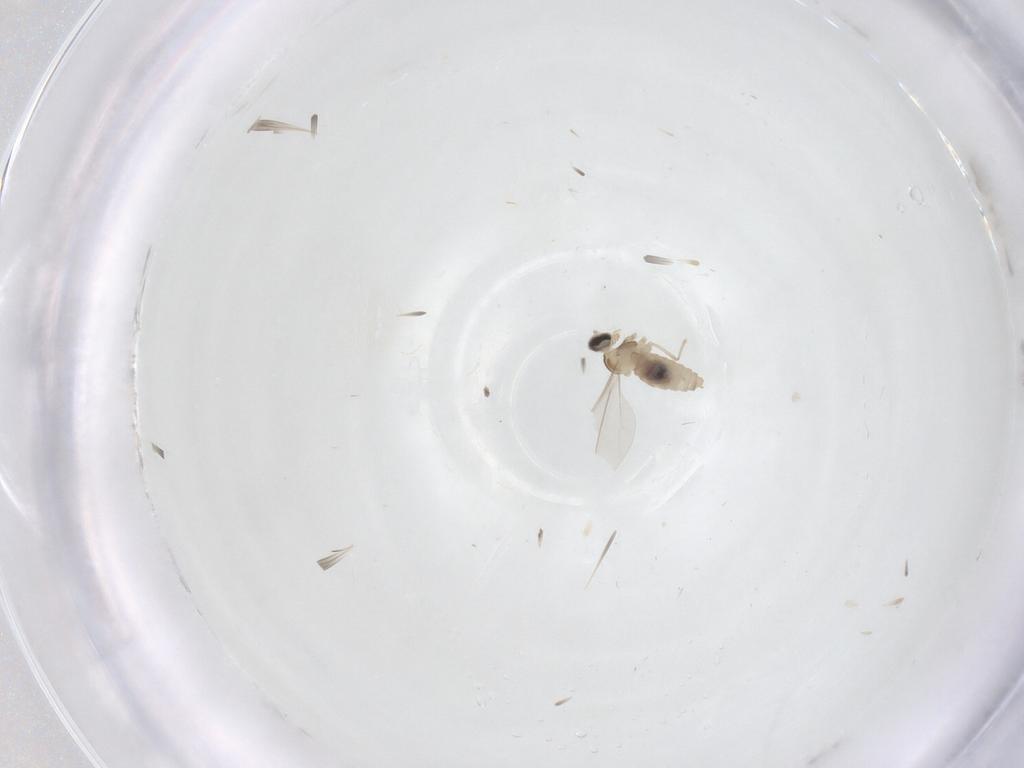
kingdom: Animalia
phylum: Arthropoda
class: Insecta
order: Diptera
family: Cecidomyiidae
